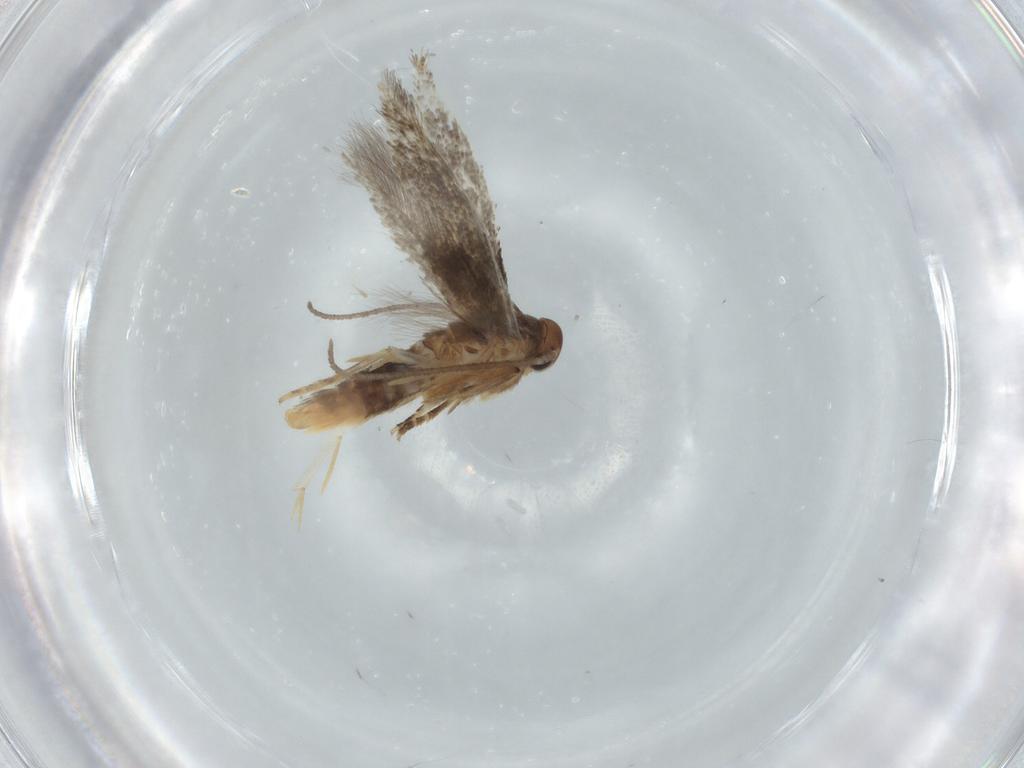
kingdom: Animalia
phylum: Arthropoda
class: Insecta
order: Lepidoptera
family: Elachistidae
